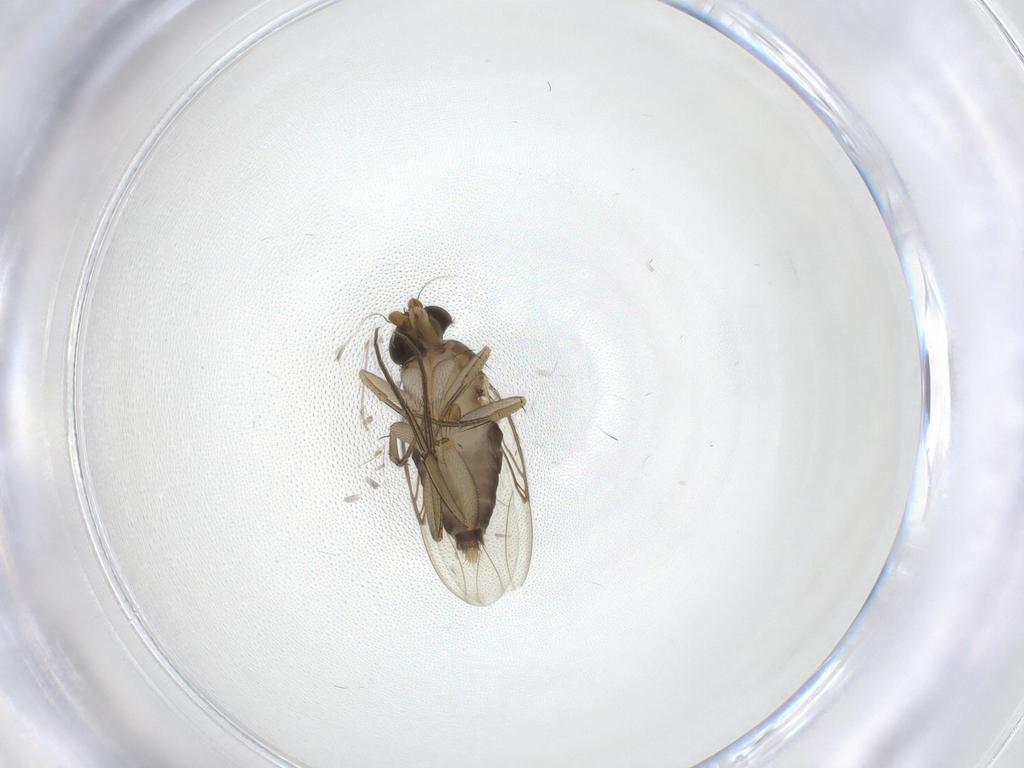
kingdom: Animalia
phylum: Arthropoda
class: Insecta
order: Diptera
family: Phoridae
